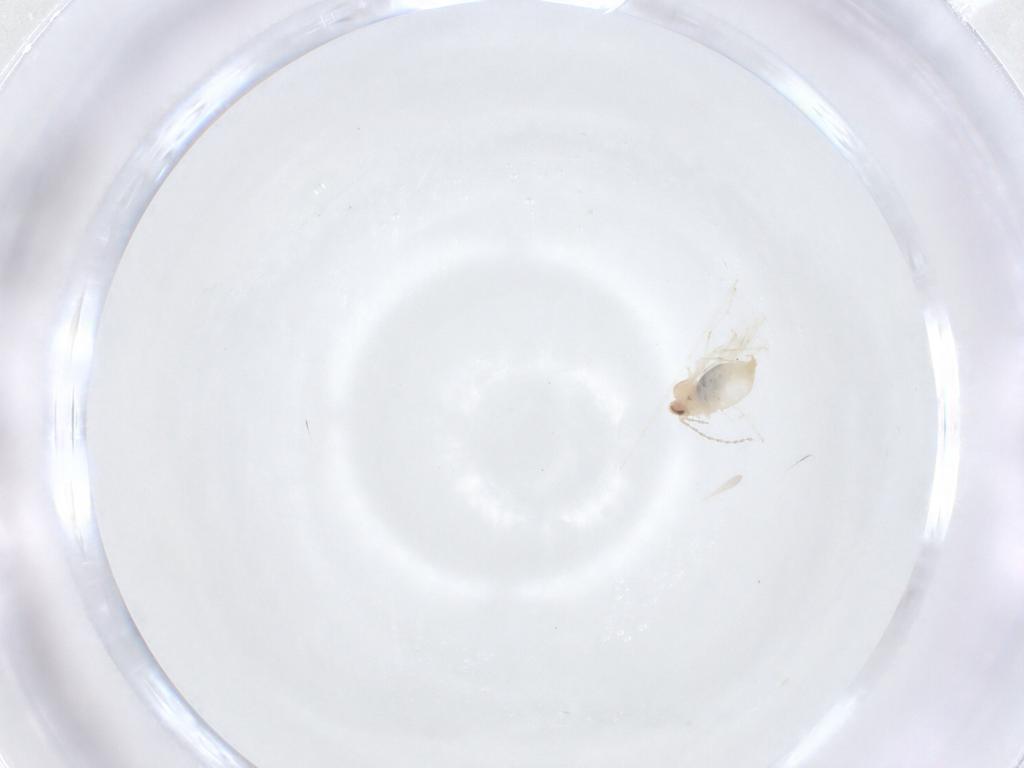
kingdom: Animalia
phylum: Arthropoda
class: Insecta
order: Diptera
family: Cecidomyiidae
